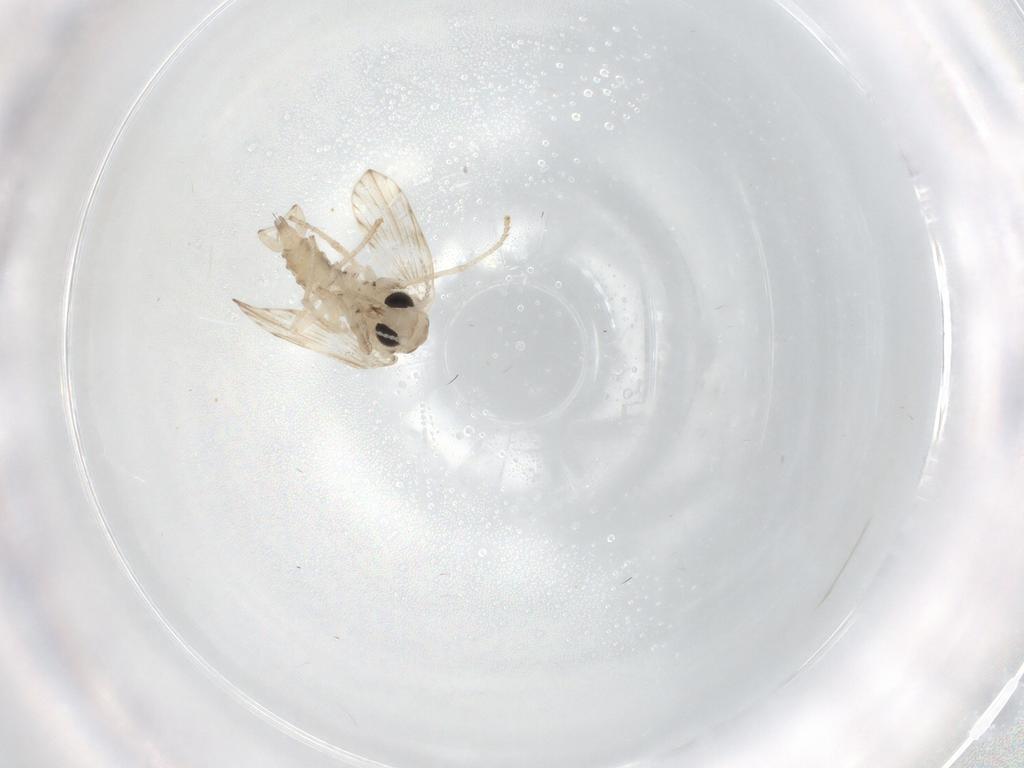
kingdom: Animalia
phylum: Arthropoda
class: Insecta
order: Diptera
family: Psychodidae
